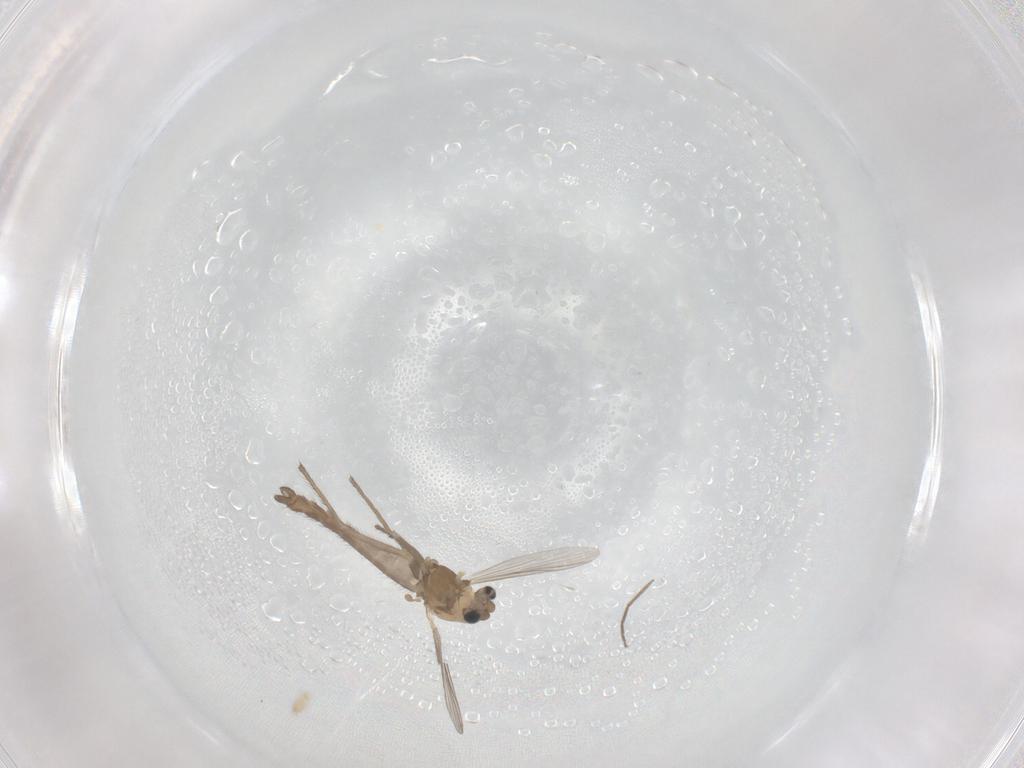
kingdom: Animalia
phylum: Arthropoda
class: Insecta
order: Diptera
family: Chironomidae
